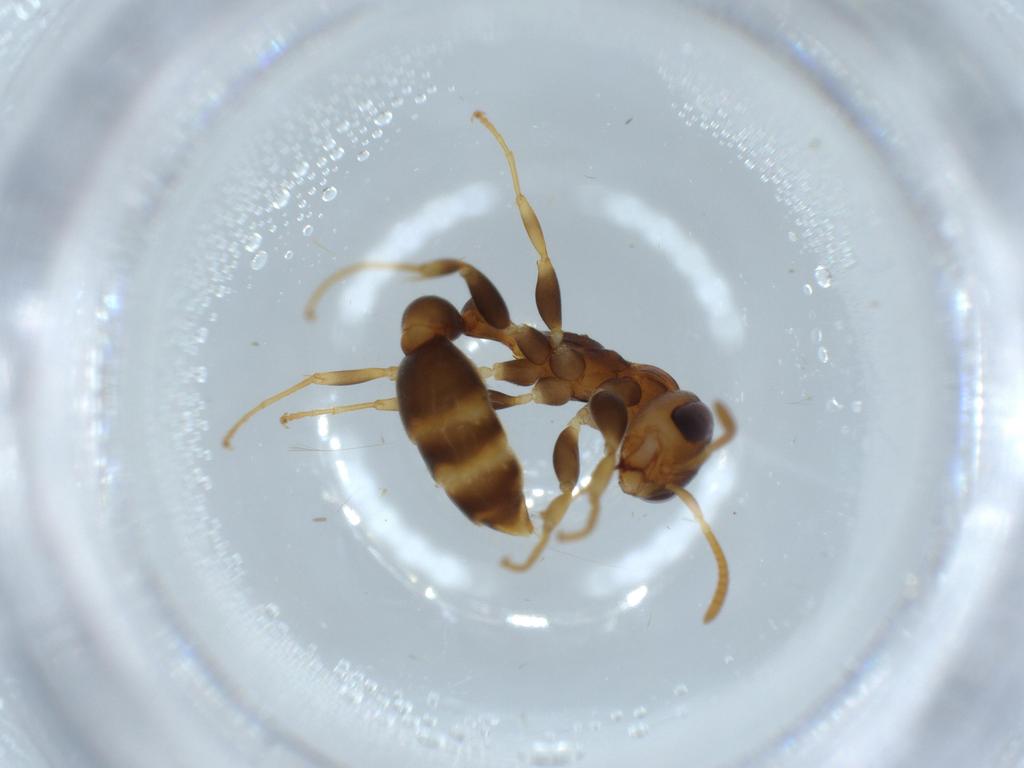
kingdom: Animalia
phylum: Arthropoda
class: Insecta
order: Hymenoptera
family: Formicidae
